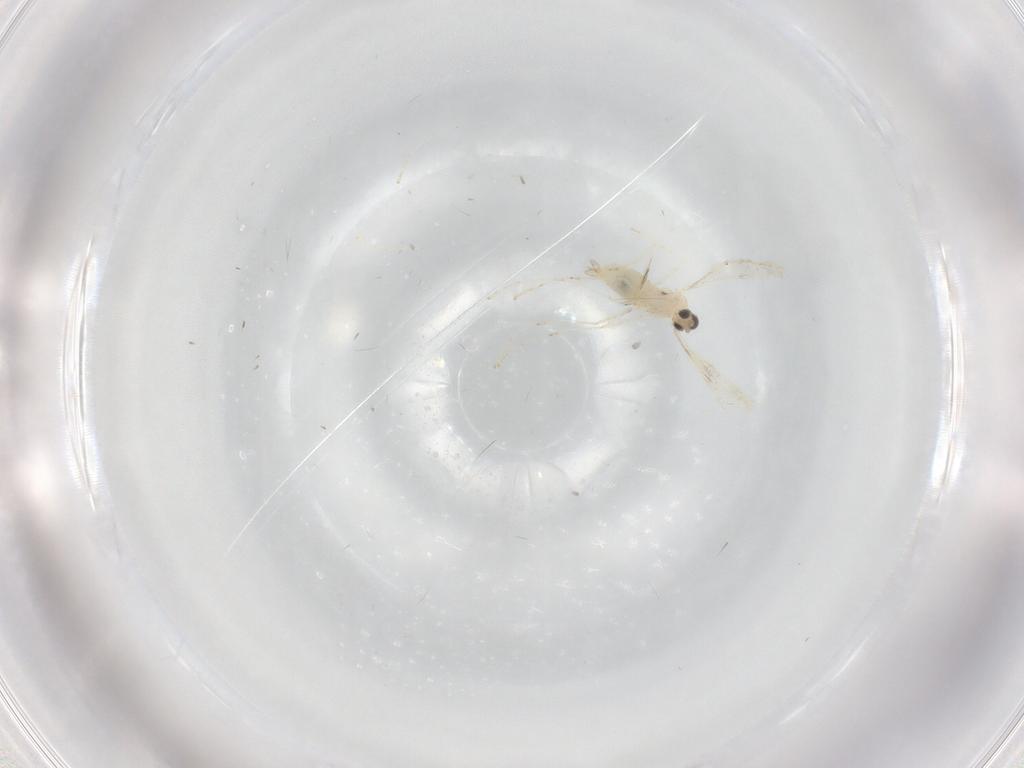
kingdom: Animalia
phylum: Arthropoda
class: Insecta
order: Diptera
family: Cecidomyiidae
